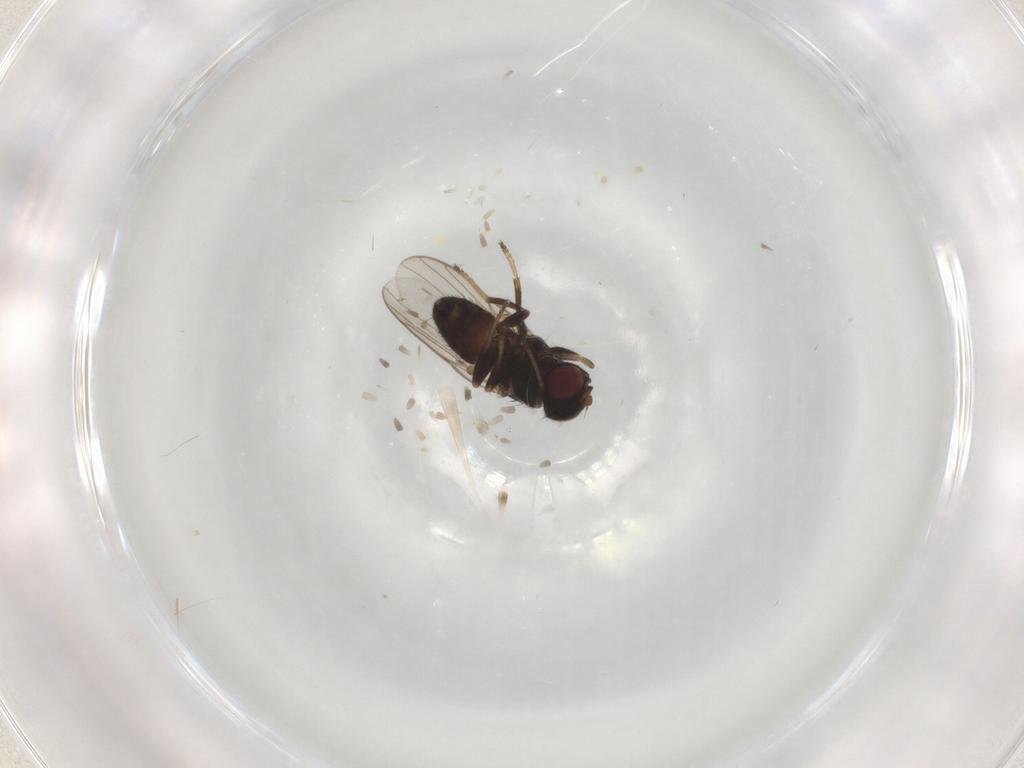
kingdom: Animalia
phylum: Arthropoda
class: Insecta
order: Diptera
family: Chloropidae
